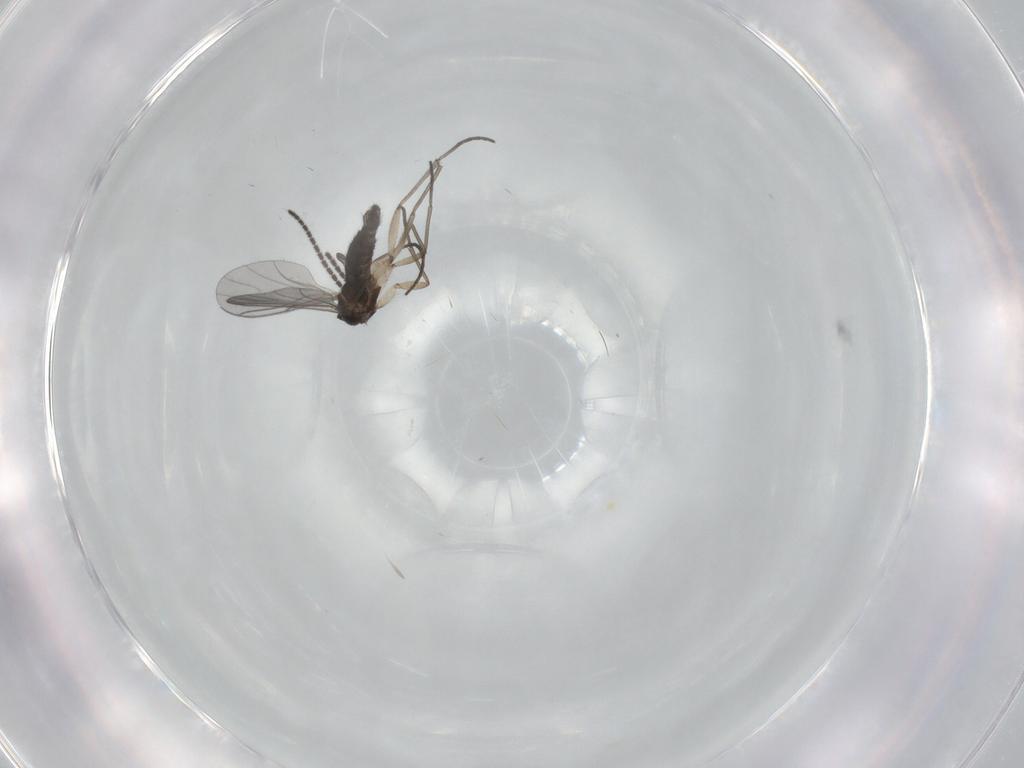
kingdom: Animalia
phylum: Arthropoda
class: Insecta
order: Diptera
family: Sciaridae
